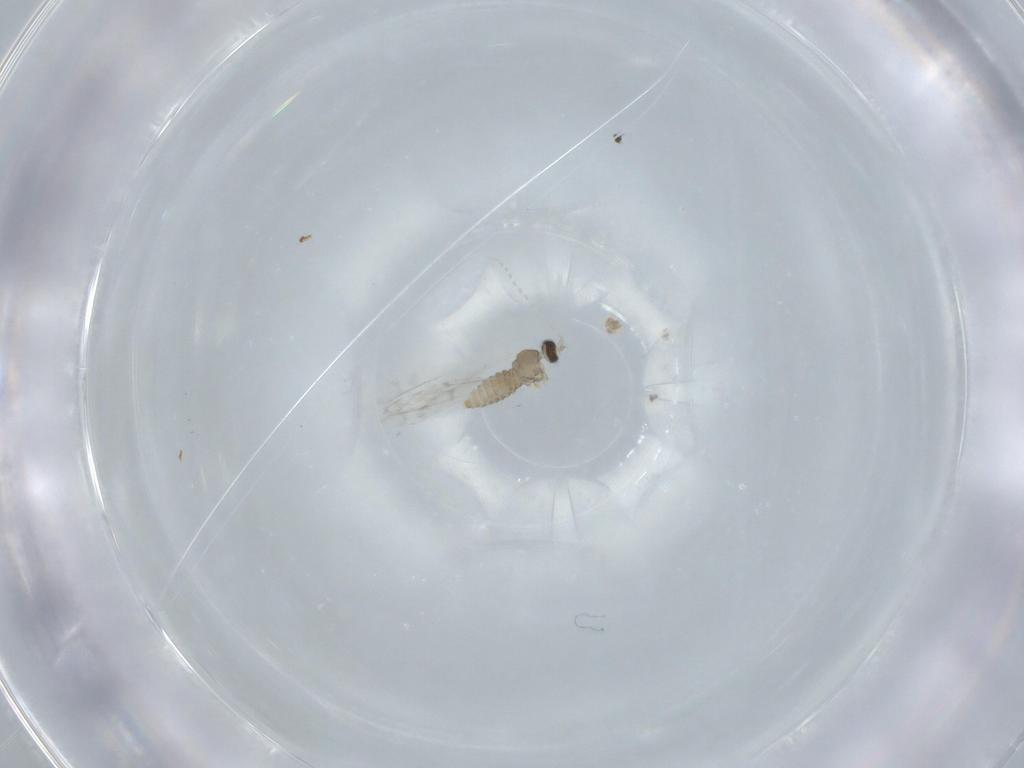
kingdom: Animalia
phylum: Arthropoda
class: Insecta
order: Diptera
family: Cecidomyiidae
